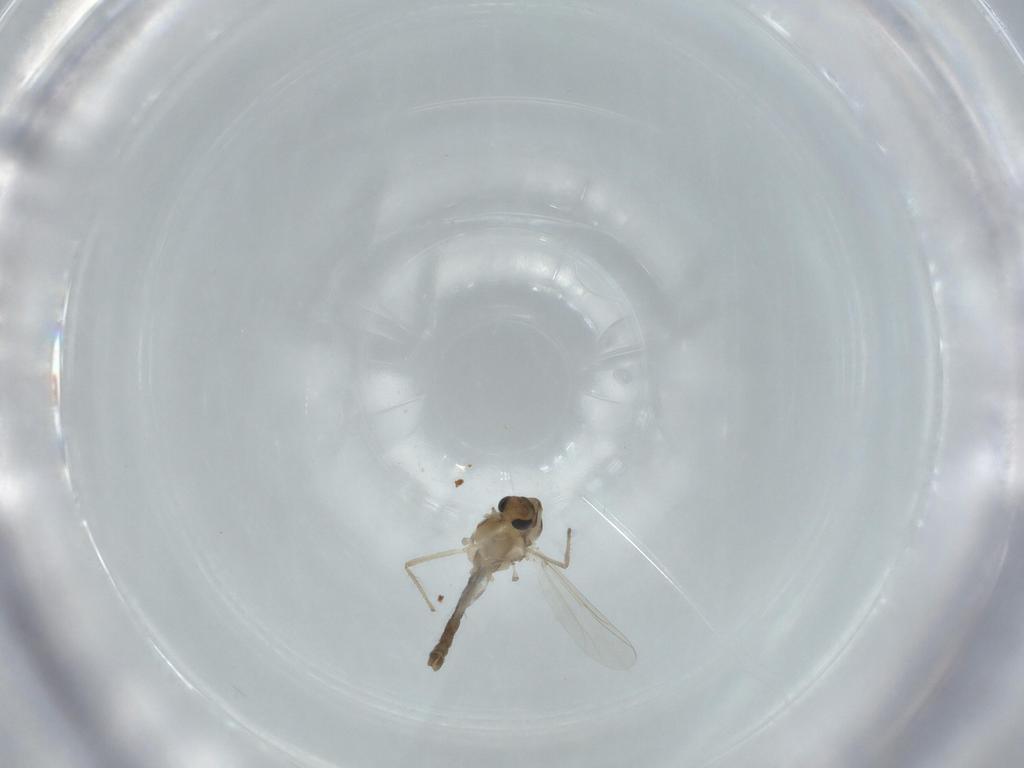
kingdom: Animalia
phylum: Arthropoda
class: Insecta
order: Diptera
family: Chironomidae
